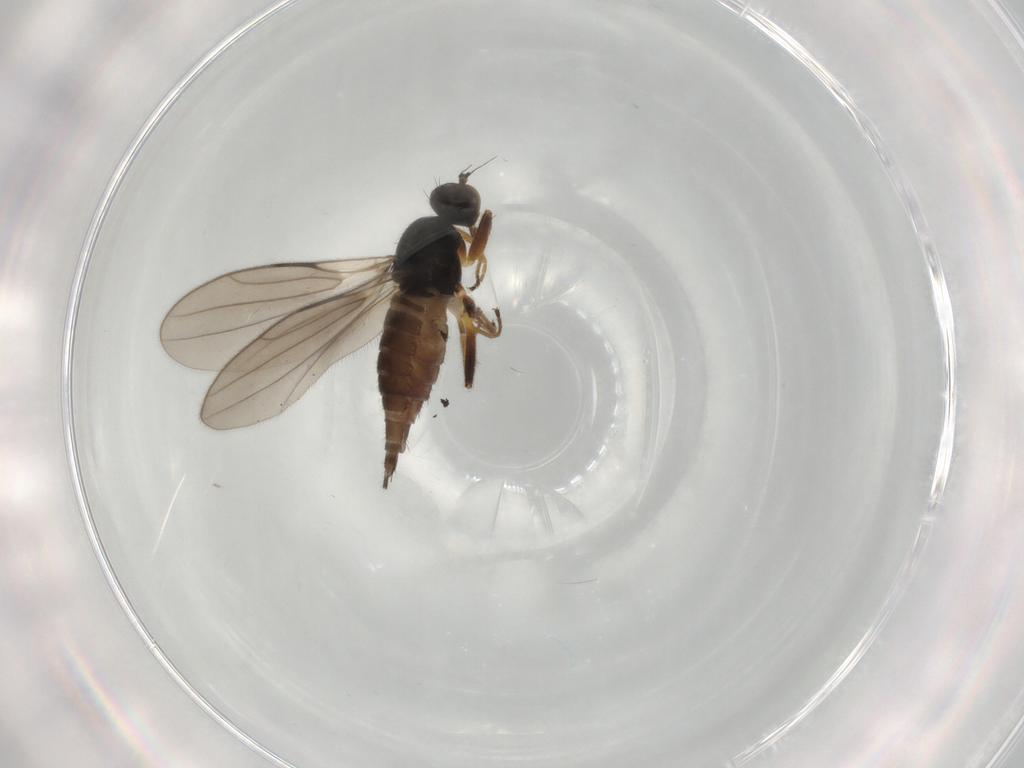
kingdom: Animalia
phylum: Arthropoda
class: Insecta
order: Diptera
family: Hybotidae
